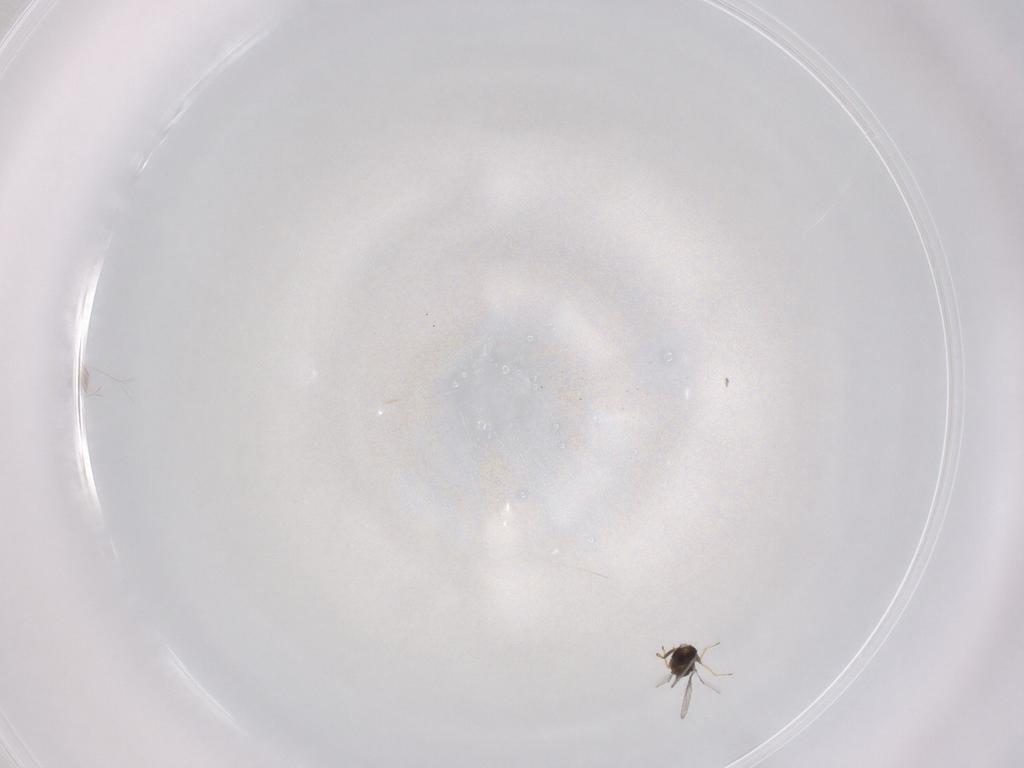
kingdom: Animalia
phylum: Arthropoda
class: Insecta
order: Hymenoptera
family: Trichogrammatidae
